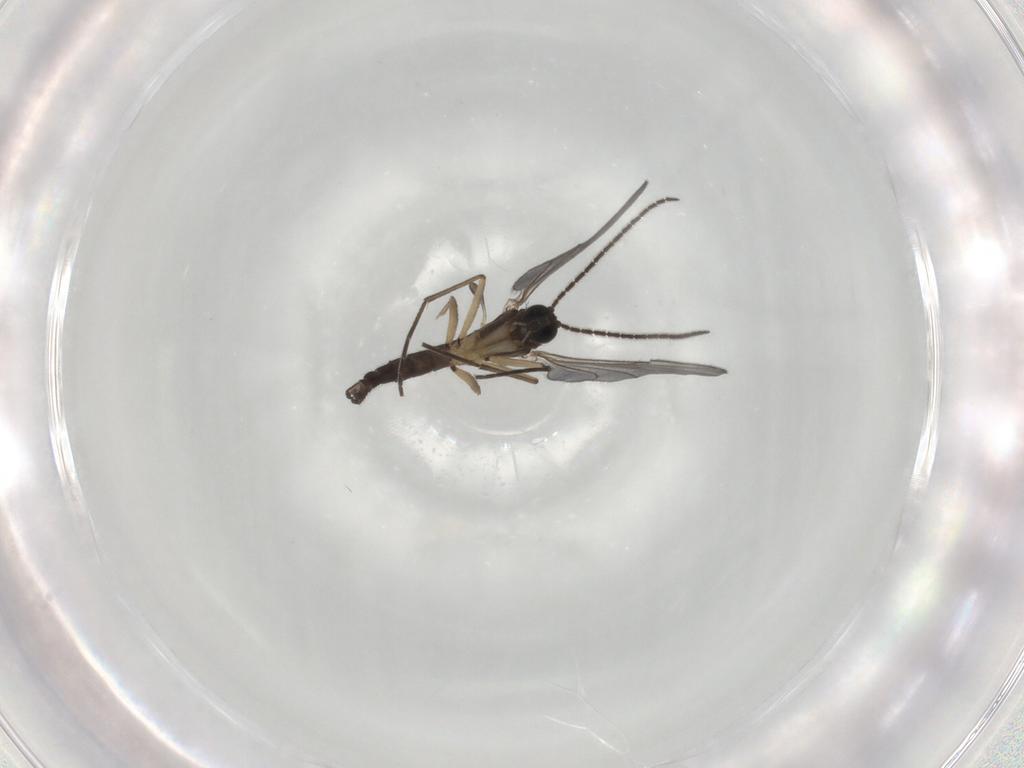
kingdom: Animalia
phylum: Arthropoda
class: Insecta
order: Diptera
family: Sciaridae
